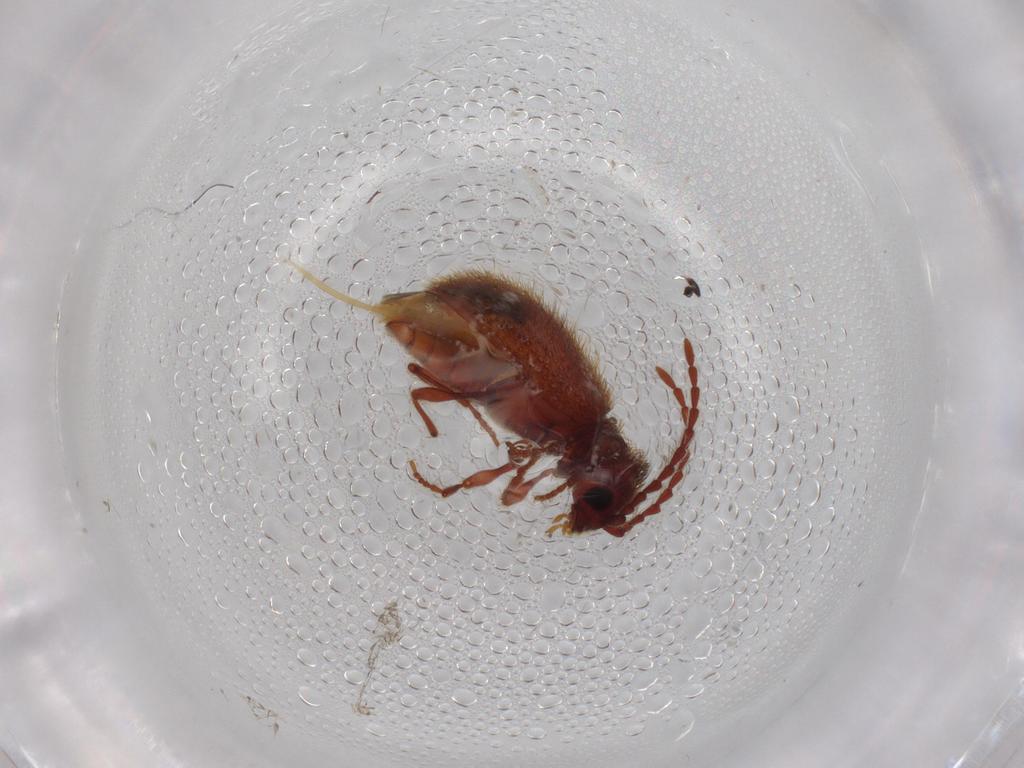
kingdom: Animalia
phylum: Arthropoda
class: Insecta
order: Coleoptera
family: Ptinidae
